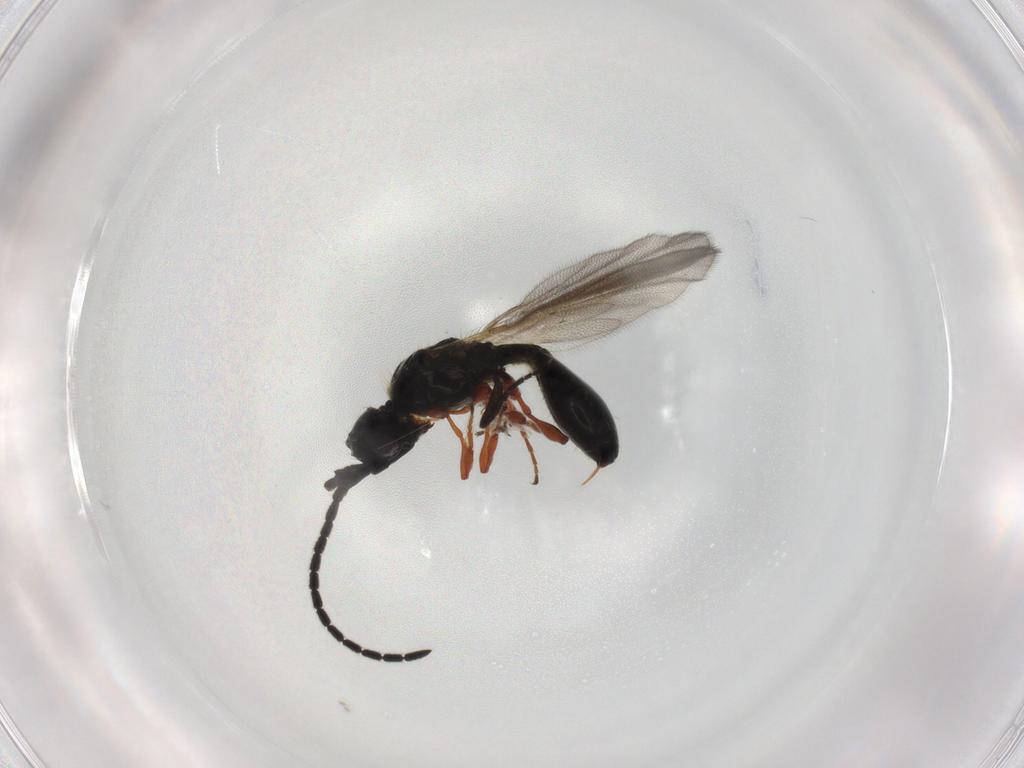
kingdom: Animalia
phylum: Arthropoda
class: Insecta
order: Hymenoptera
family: Diapriidae
